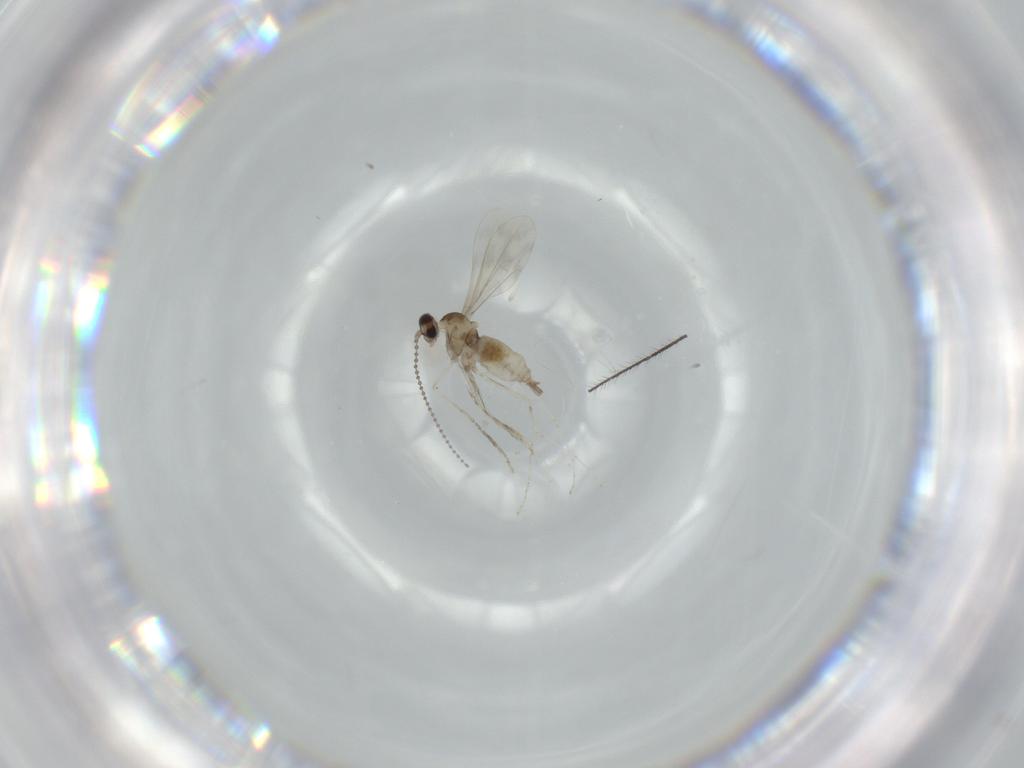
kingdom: Animalia
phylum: Arthropoda
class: Insecta
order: Diptera
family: Cecidomyiidae
